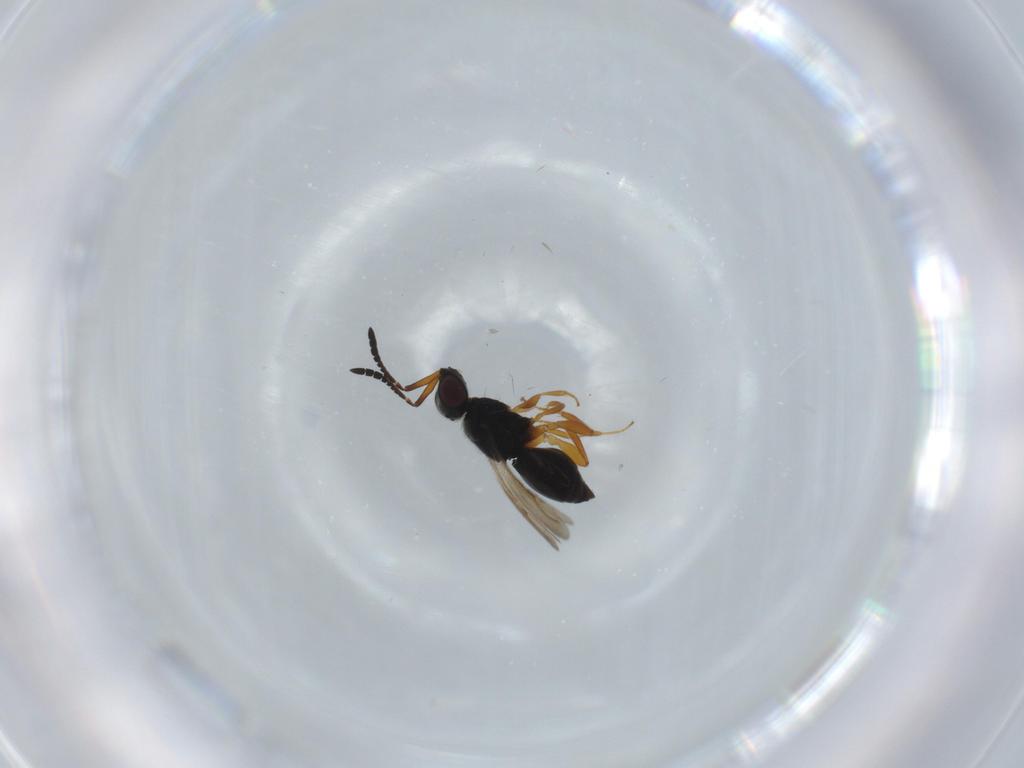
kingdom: Animalia
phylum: Arthropoda
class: Insecta
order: Hymenoptera
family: Ceraphronidae
